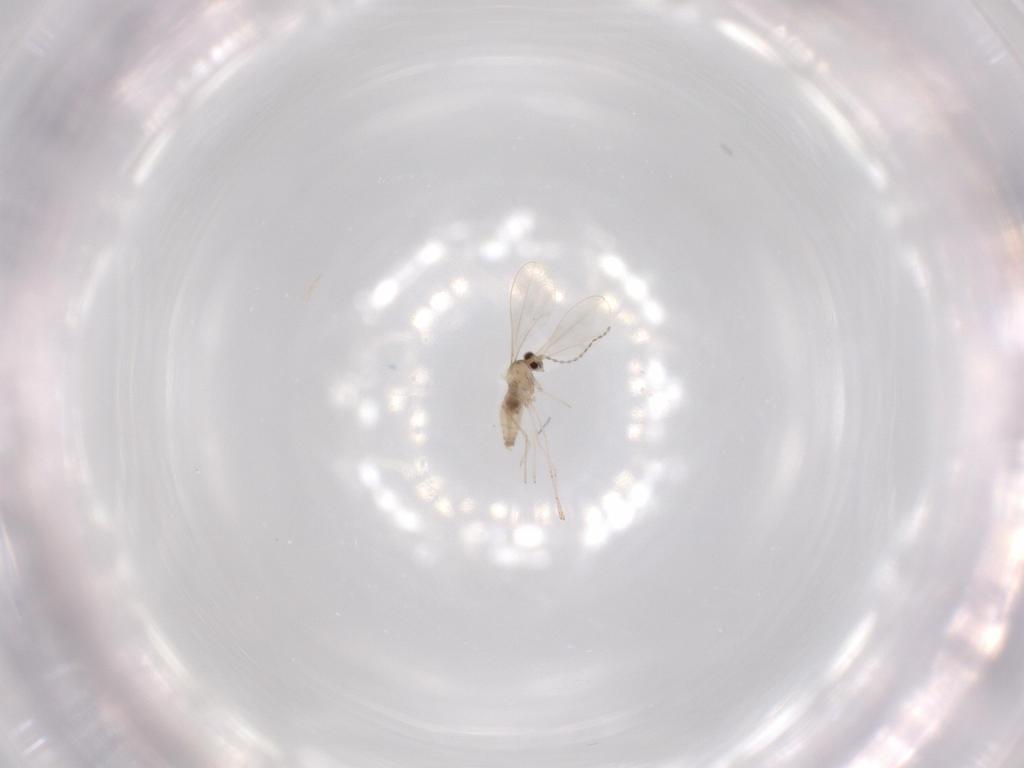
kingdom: Animalia
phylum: Arthropoda
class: Insecta
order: Diptera
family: Cecidomyiidae
